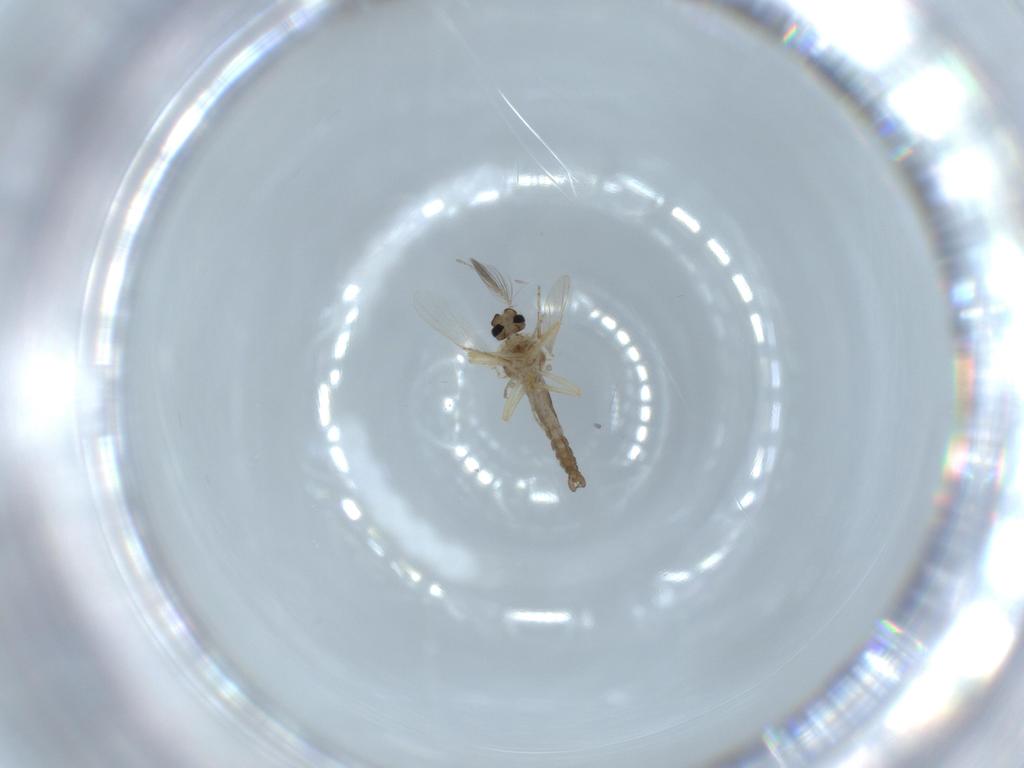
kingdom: Animalia
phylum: Arthropoda
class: Insecta
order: Diptera
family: Ceratopogonidae
